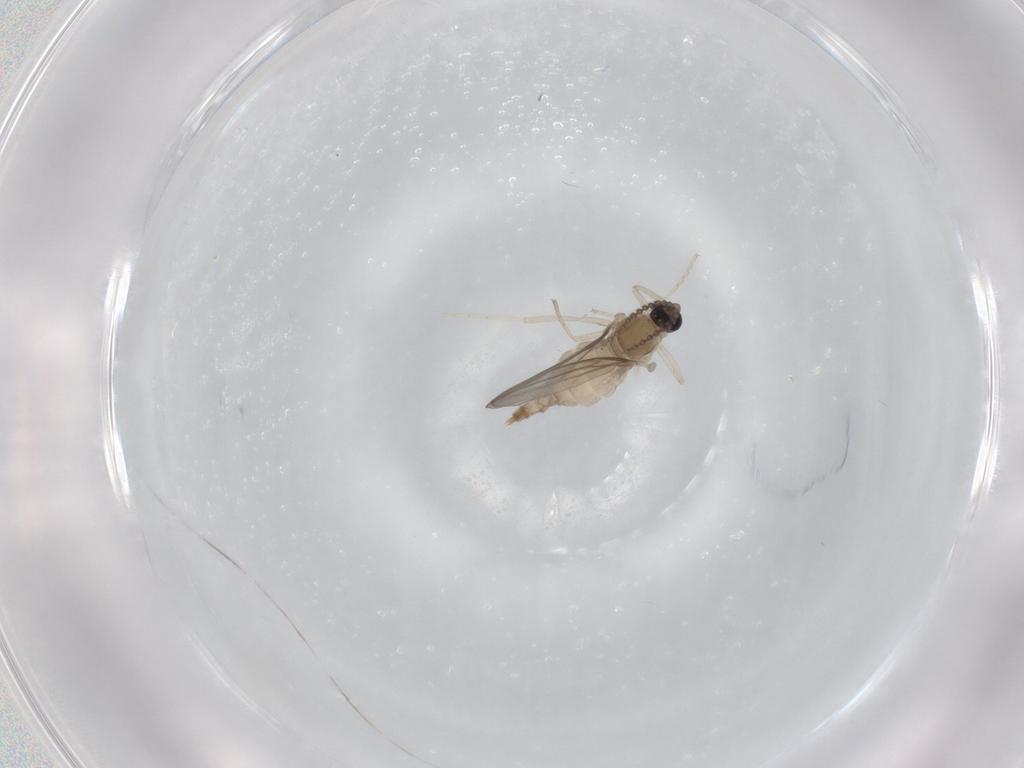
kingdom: Animalia
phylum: Arthropoda
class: Insecta
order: Diptera
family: Cecidomyiidae
